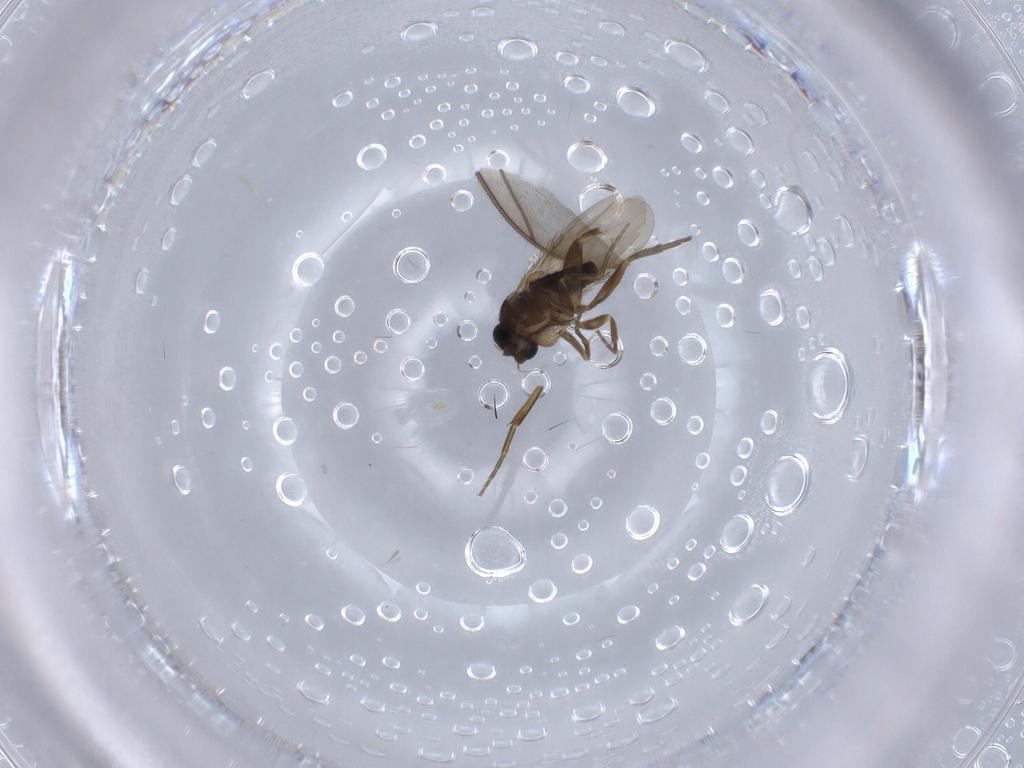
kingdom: Animalia
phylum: Arthropoda
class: Insecta
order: Diptera
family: Phoridae
